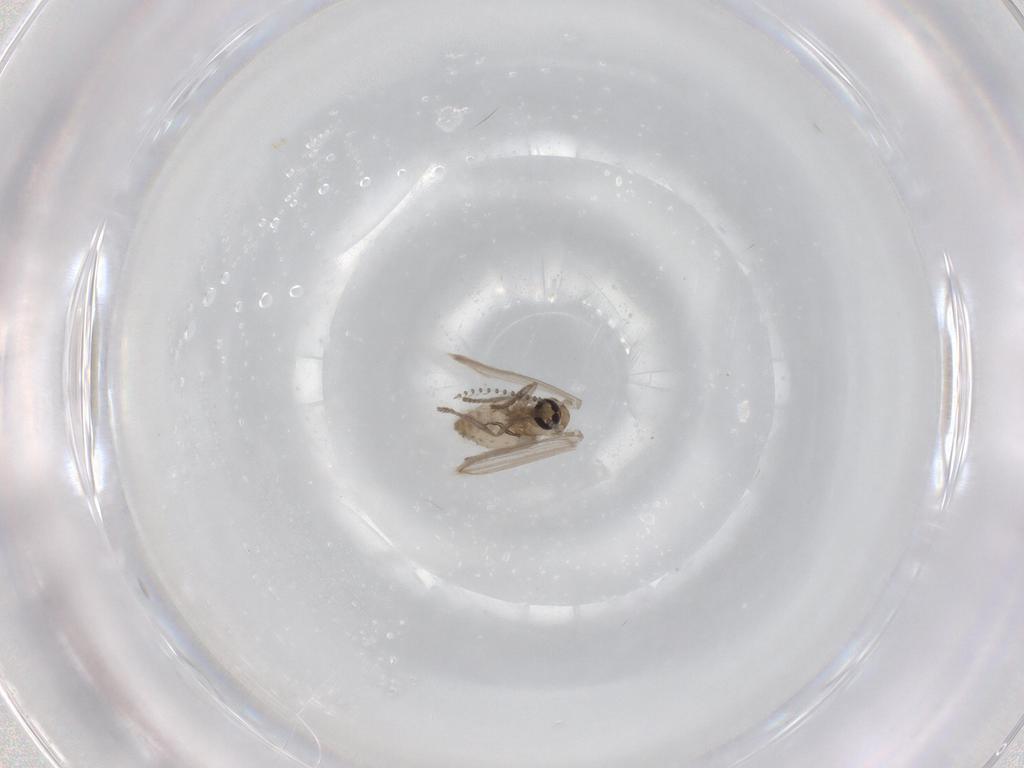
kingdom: Animalia
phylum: Arthropoda
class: Insecta
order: Diptera
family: Psychodidae
